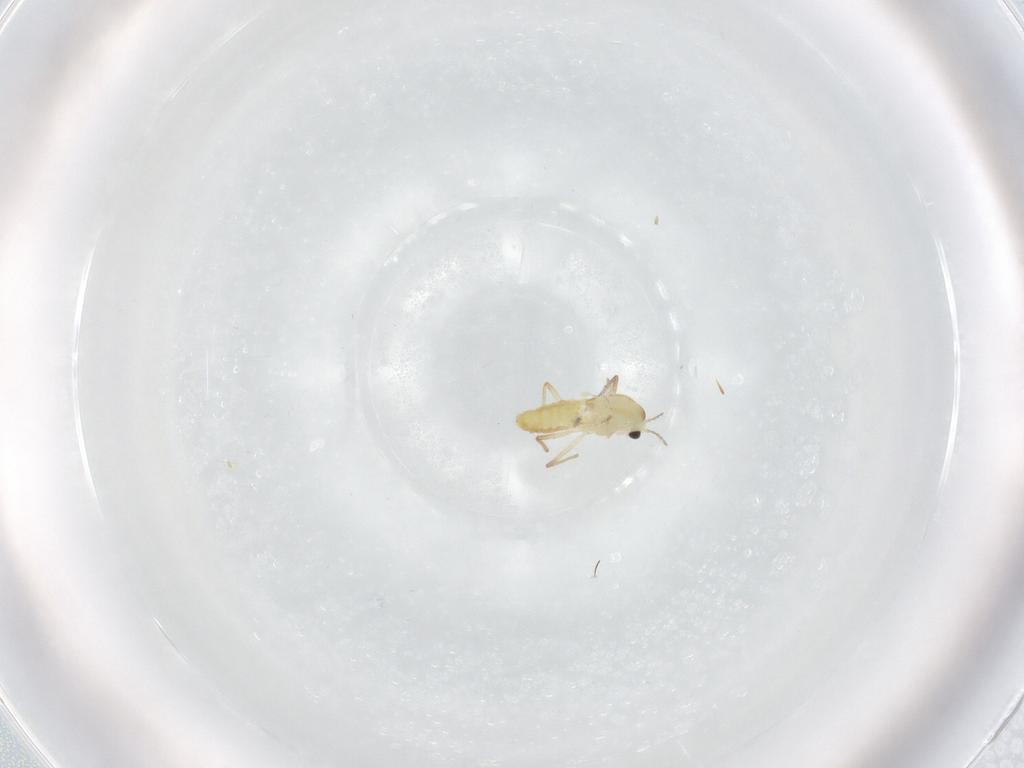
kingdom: Animalia
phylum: Arthropoda
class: Insecta
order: Diptera
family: Chironomidae
